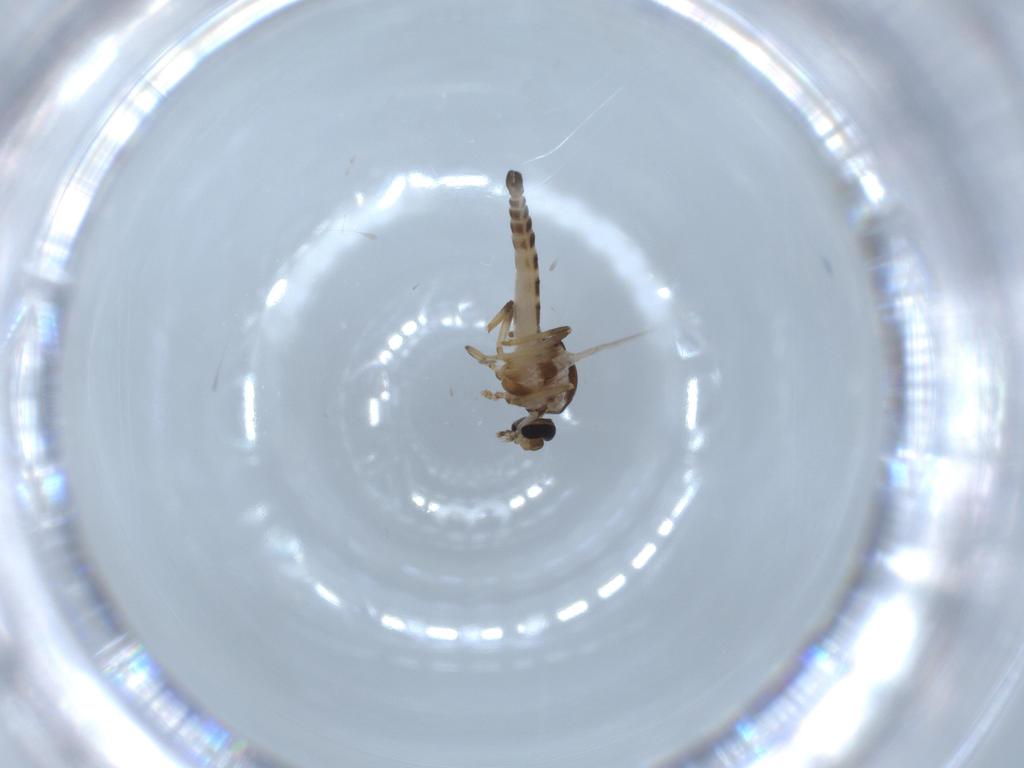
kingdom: Animalia
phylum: Arthropoda
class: Insecta
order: Diptera
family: Ceratopogonidae
